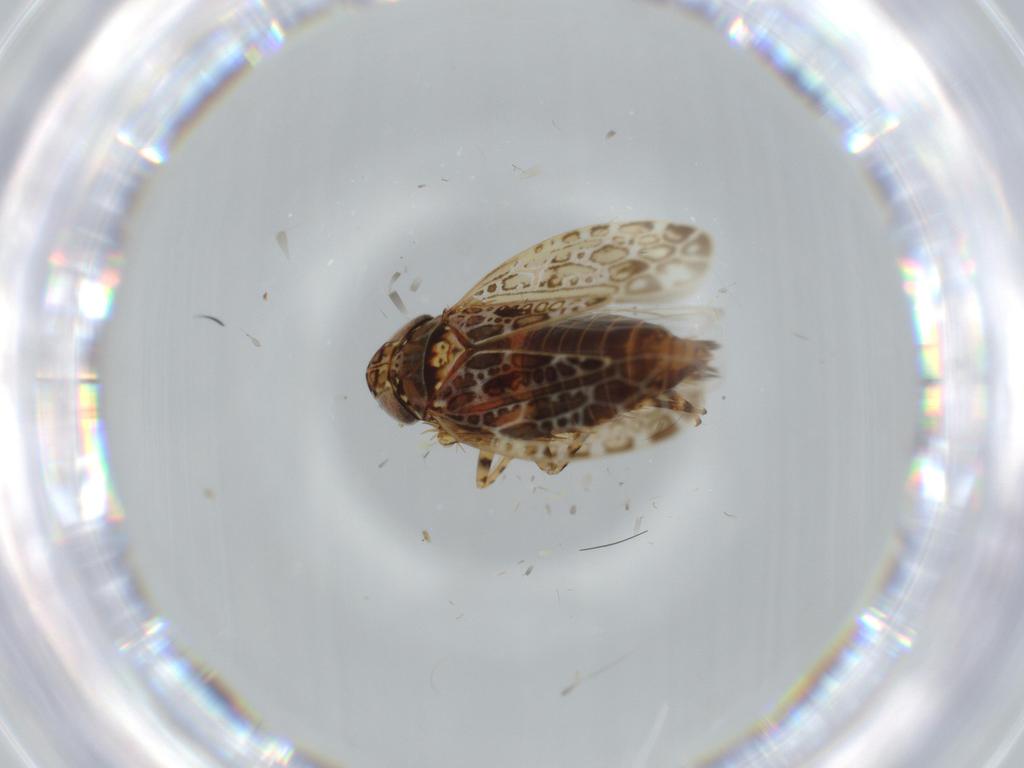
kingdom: Animalia
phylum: Arthropoda
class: Insecta
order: Hemiptera
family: Cicadellidae
